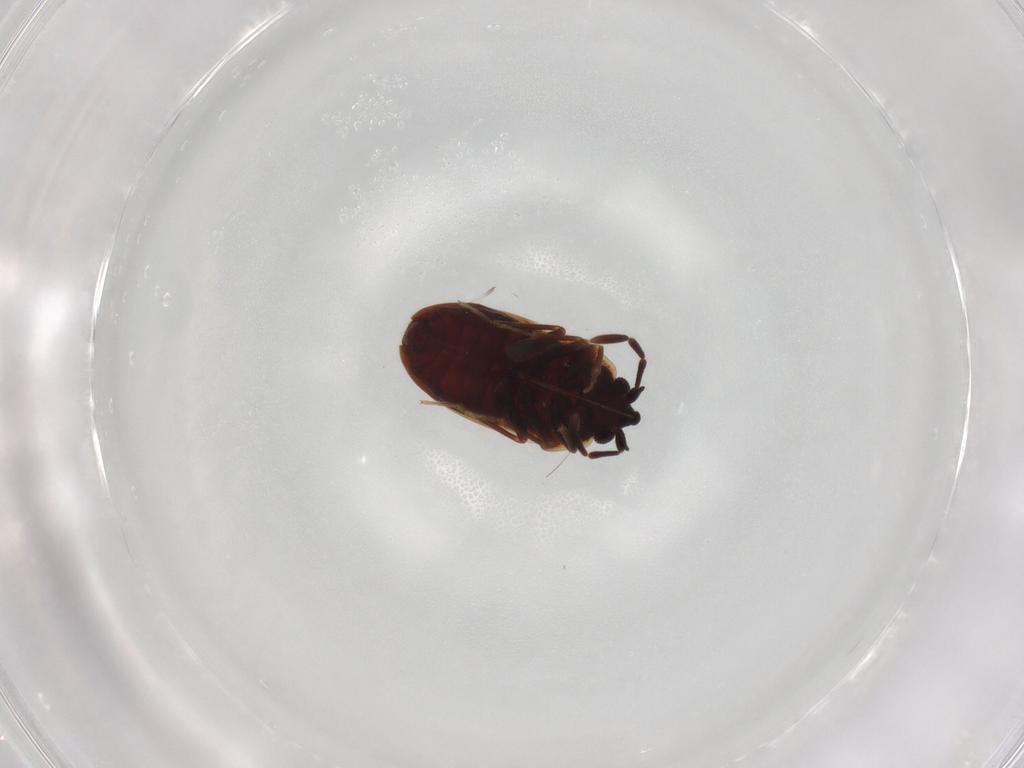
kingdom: Animalia
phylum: Arthropoda
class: Insecta
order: Hemiptera
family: Rhyparochromidae
